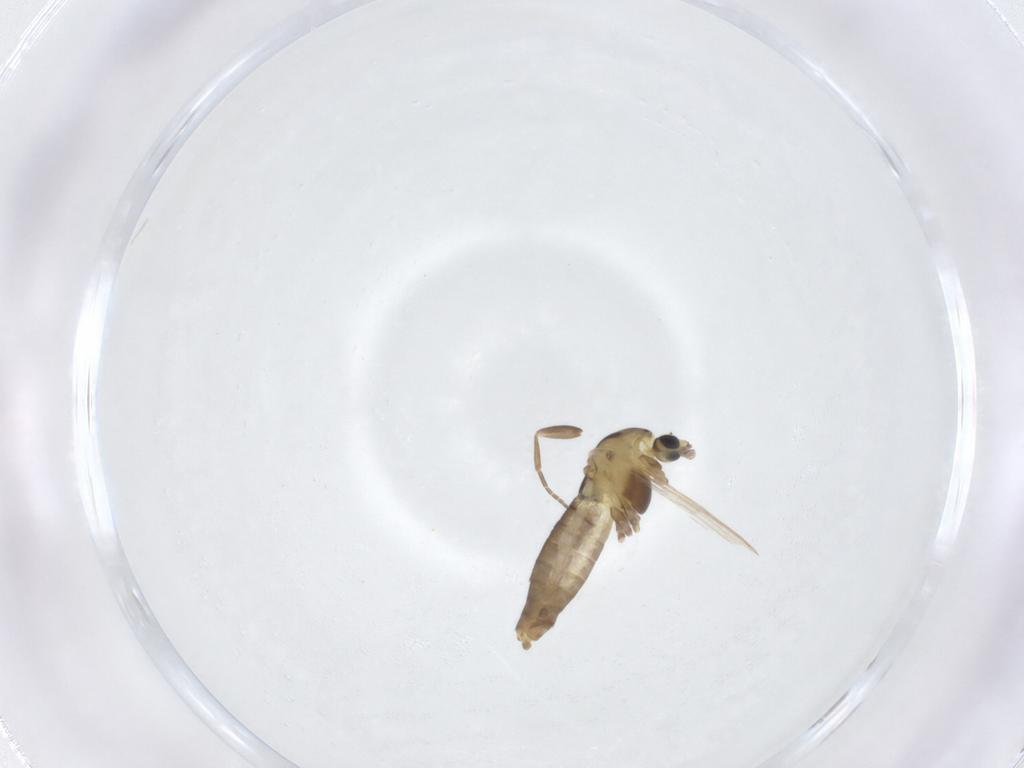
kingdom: Animalia
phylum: Arthropoda
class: Insecta
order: Diptera
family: Chironomidae
